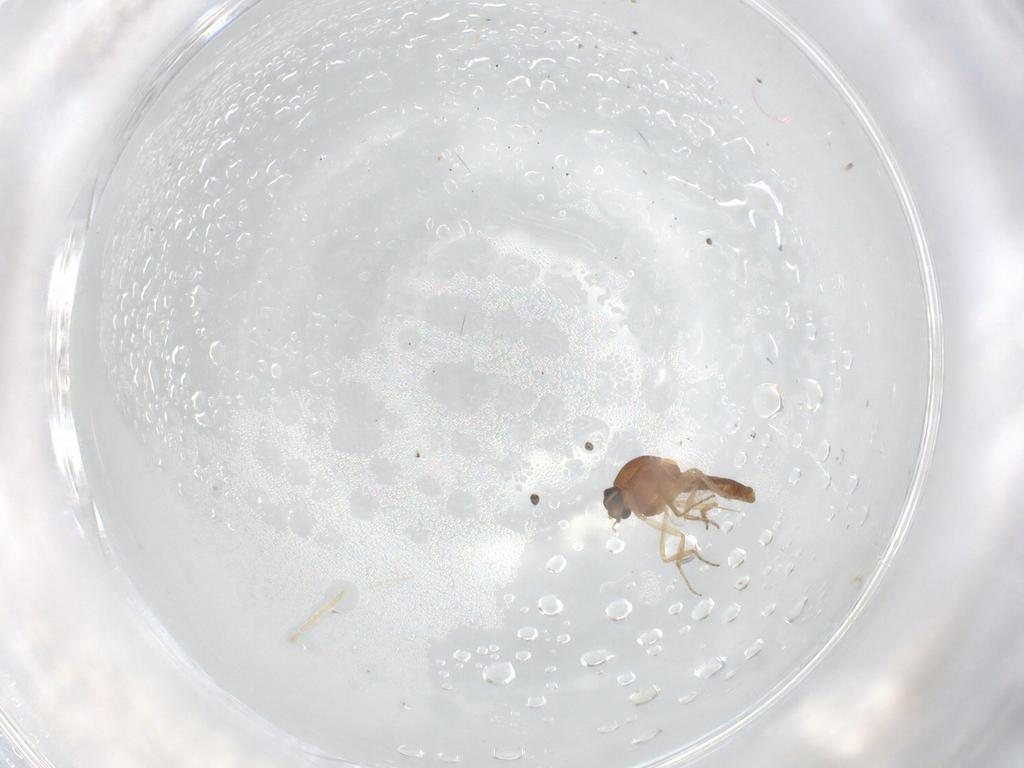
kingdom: Animalia
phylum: Arthropoda
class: Insecta
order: Diptera
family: Ceratopogonidae
